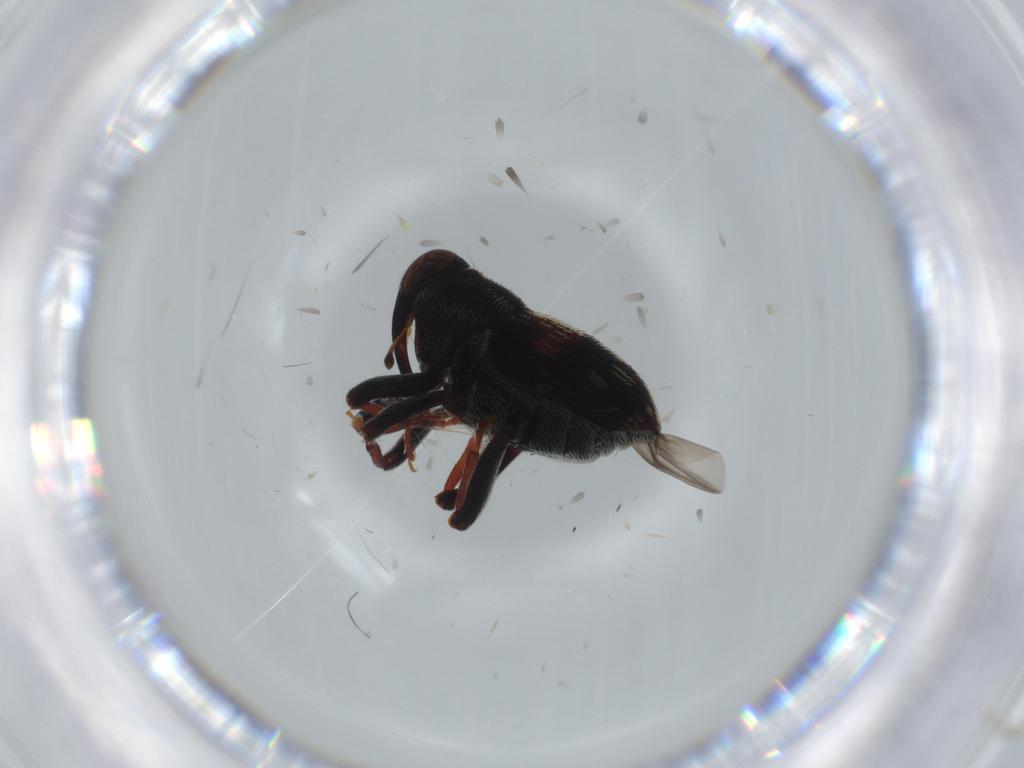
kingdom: Animalia
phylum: Arthropoda
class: Insecta
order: Coleoptera
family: Curculionidae
